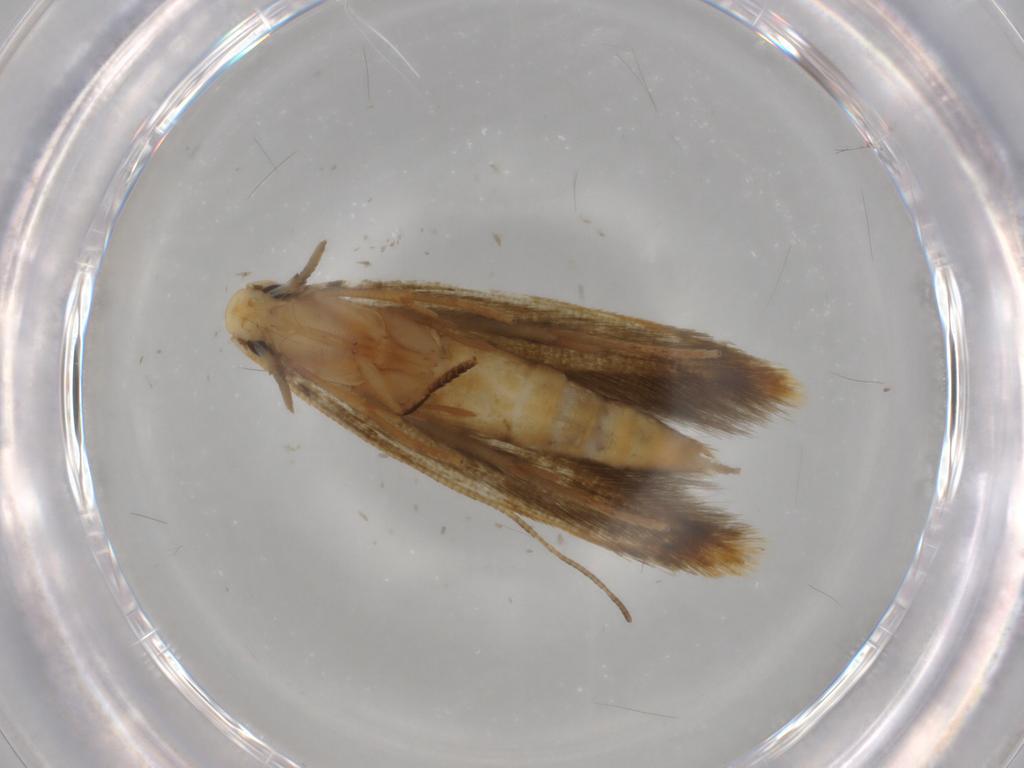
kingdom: Animalia
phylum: Arthropoda
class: Insecta
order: Lepidoptera
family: Tineidae
